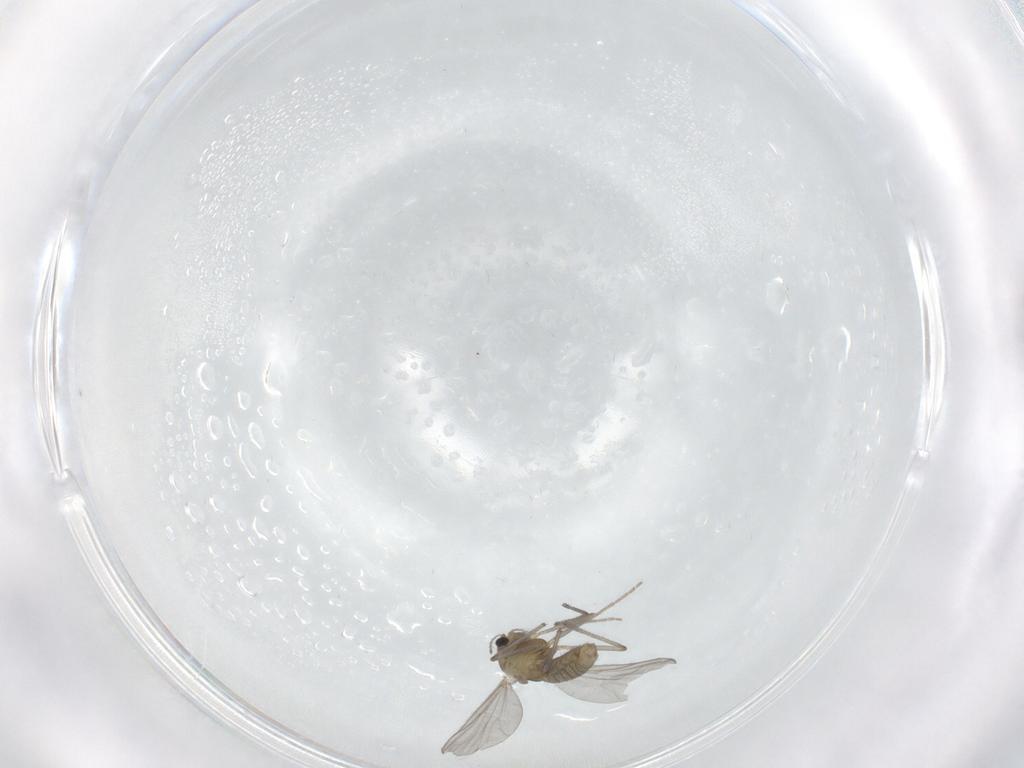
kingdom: Animalia
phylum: Arthropoda
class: Insecta
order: Diptera
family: Chironomidae
